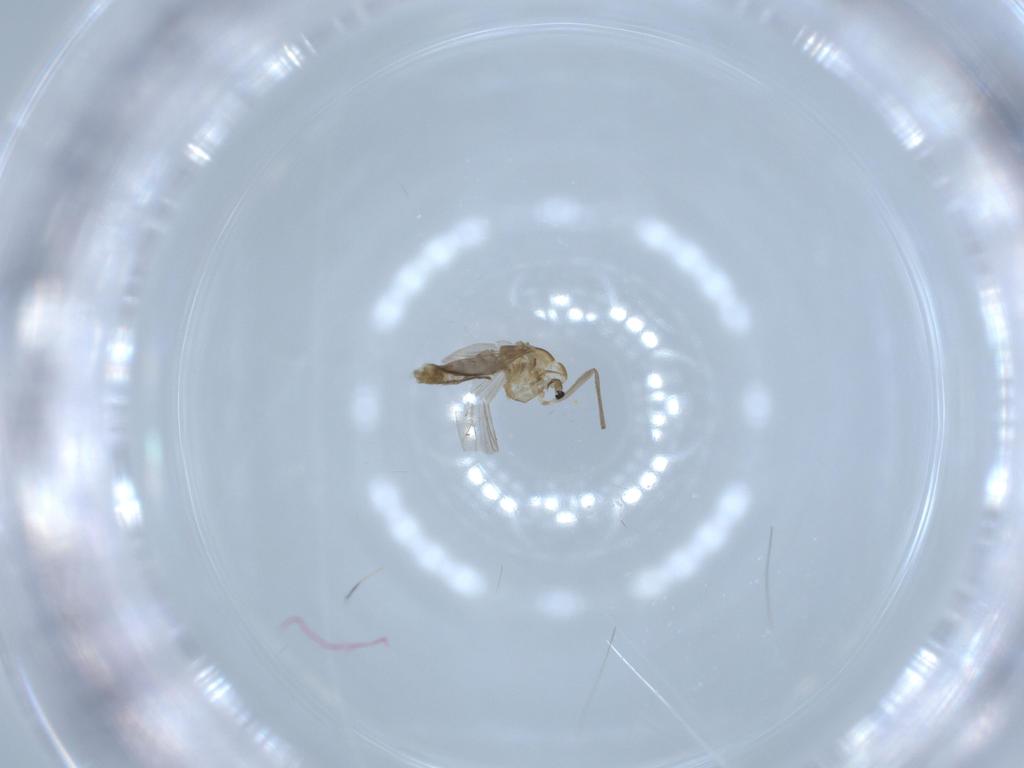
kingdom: Animalia
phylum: Arthropoda
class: Insecta
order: Diptera
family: Chironomidae
